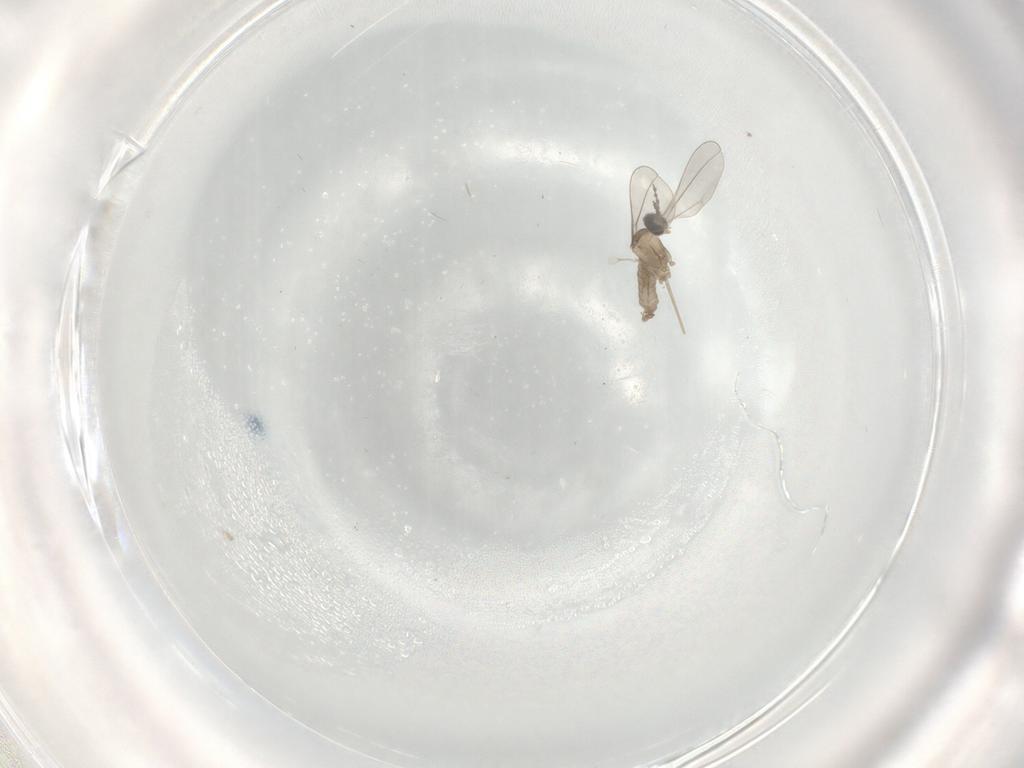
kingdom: Animalia
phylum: Arthropoda
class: Insecta
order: Diptera
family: Cecidomyiidae
